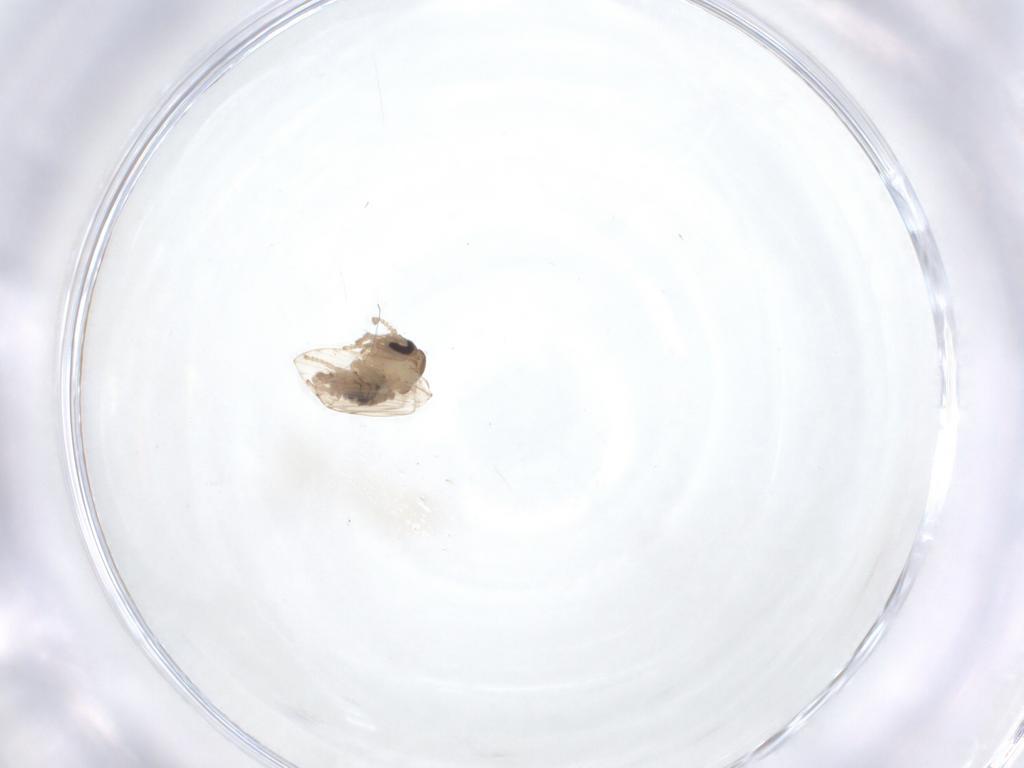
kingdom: Animalia
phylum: Arthropoda
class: Insecta
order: Diptera
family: Psychodidae
